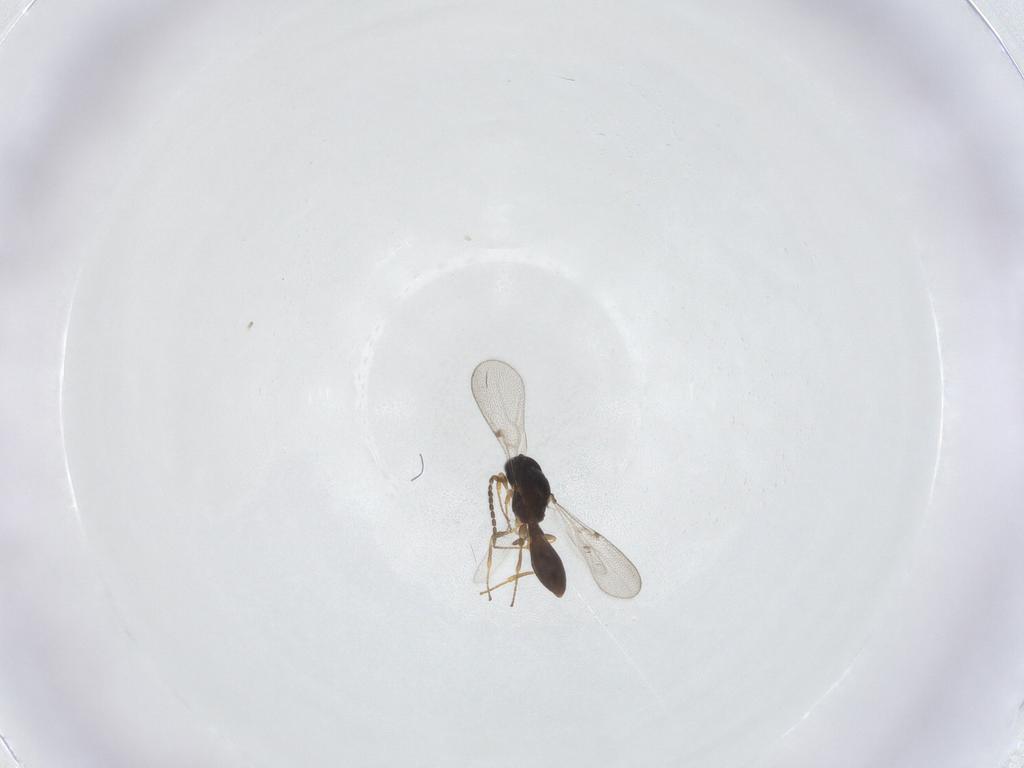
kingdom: Animalia
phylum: Arthropoda
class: Insecta
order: Hymenoptera
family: Platygastridae
